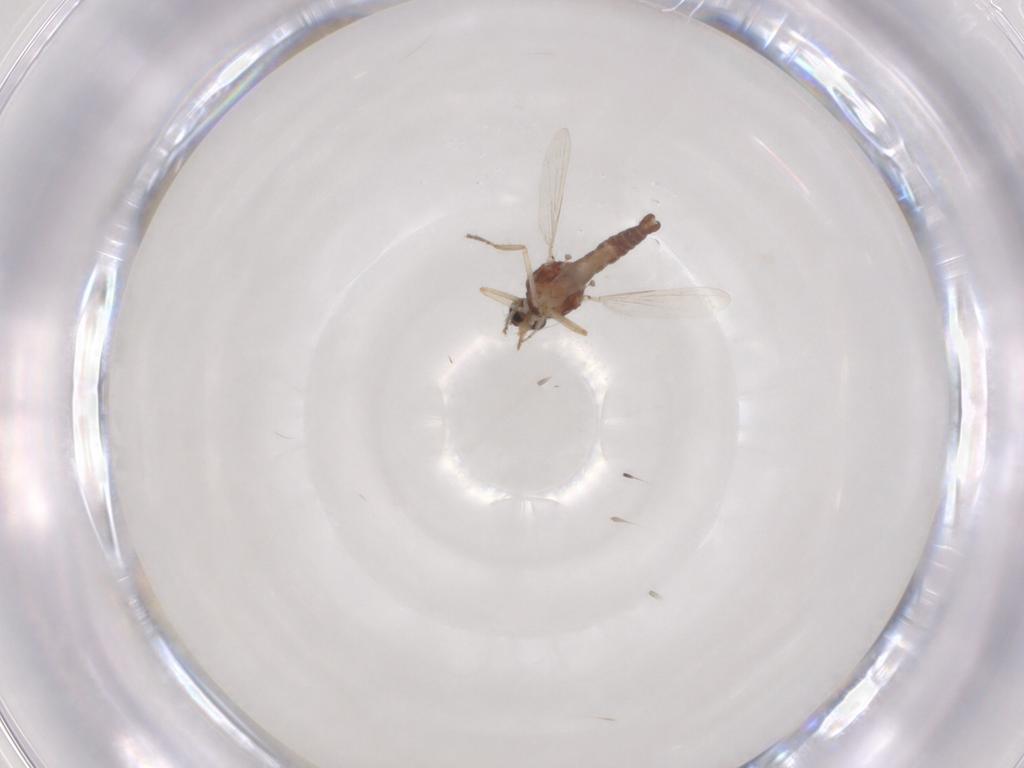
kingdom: Animalia
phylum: Arthropoda
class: Insecta
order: Diptera
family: Ceratopogonidae
